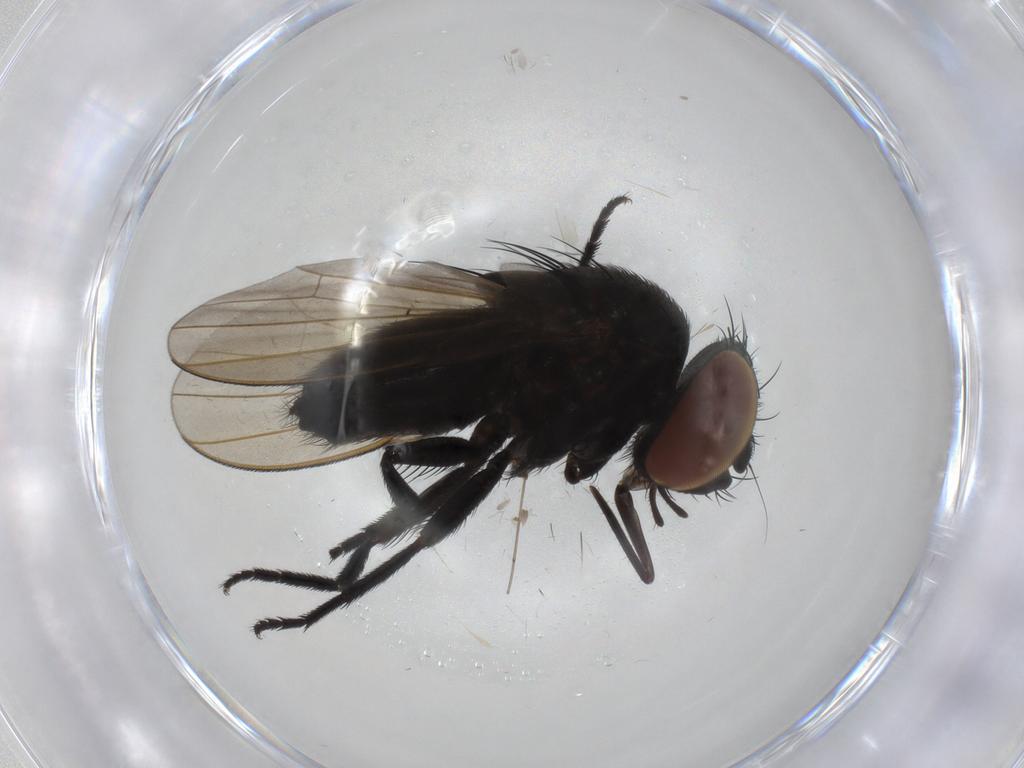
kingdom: Animalia
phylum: Arthropoda
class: Insecta
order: Diptera
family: Milichiidae
